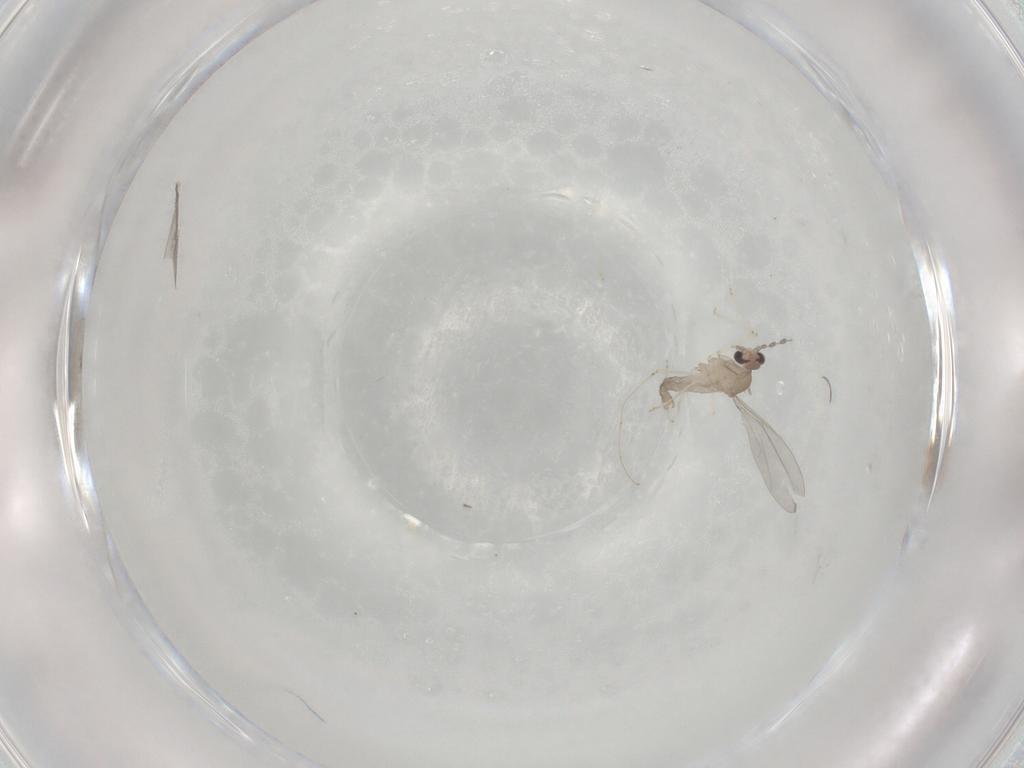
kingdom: Animalia
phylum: Arthropoda
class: Insecta
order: Diptera
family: Cecidomyiidae
